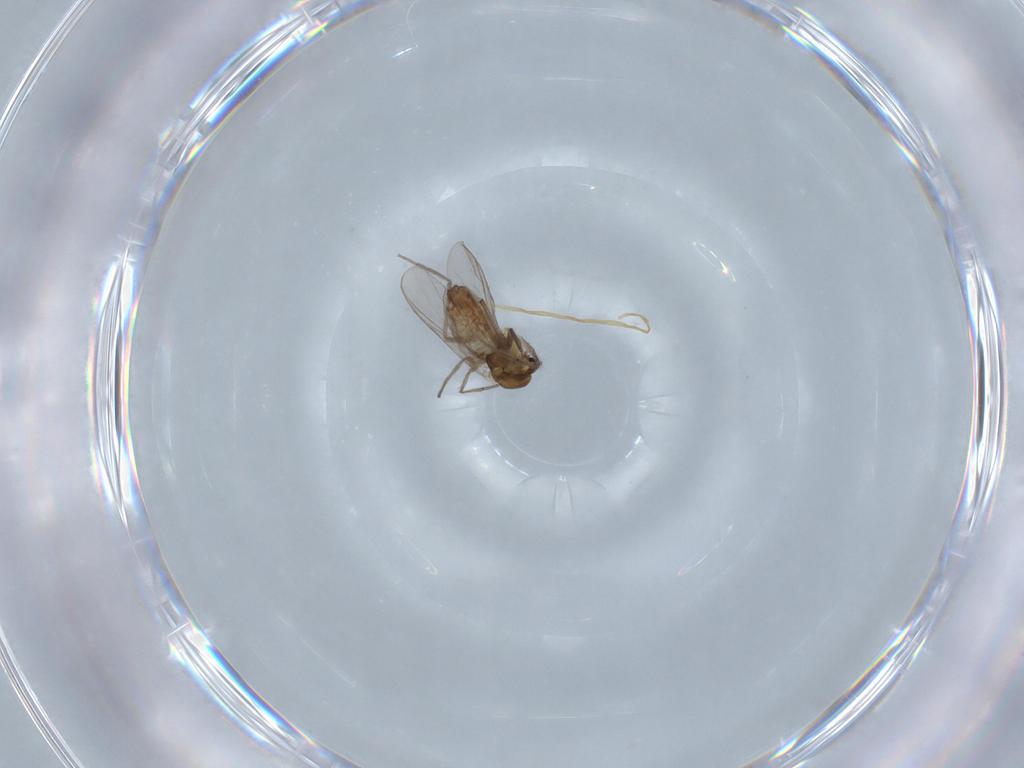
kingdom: Animalia
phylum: Arthropoda
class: Insecta
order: Diptera
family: Chironomidae
